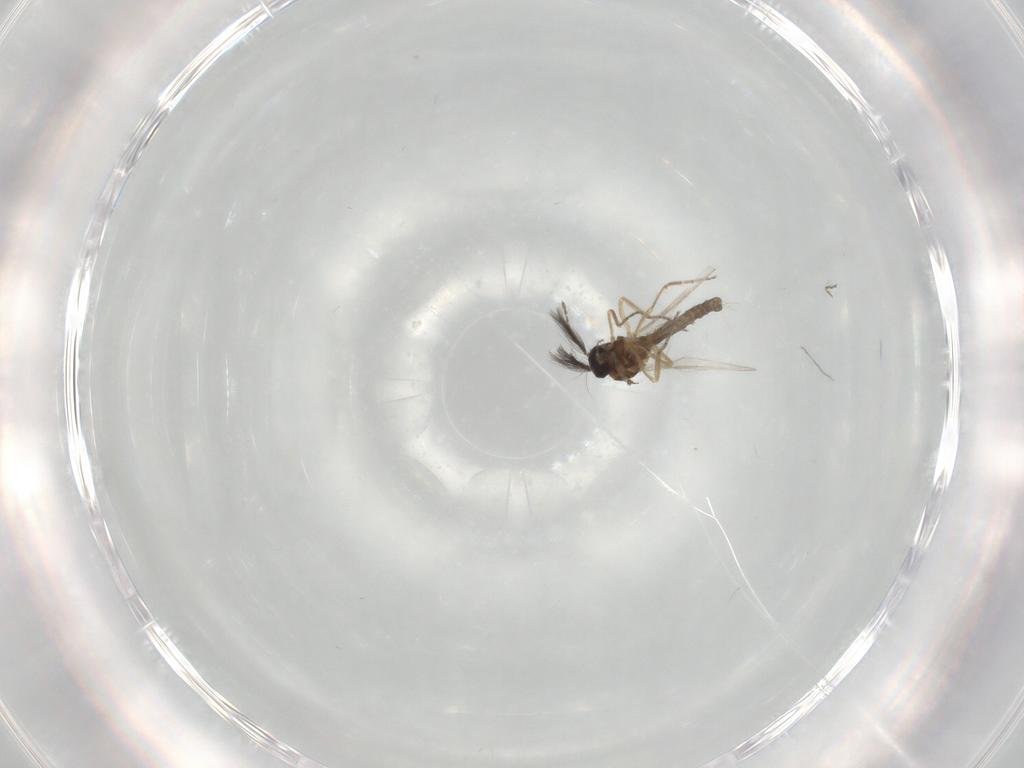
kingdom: Animalia
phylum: Arthropoda
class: Insecta
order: Diptera
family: Ceratopogonidae
